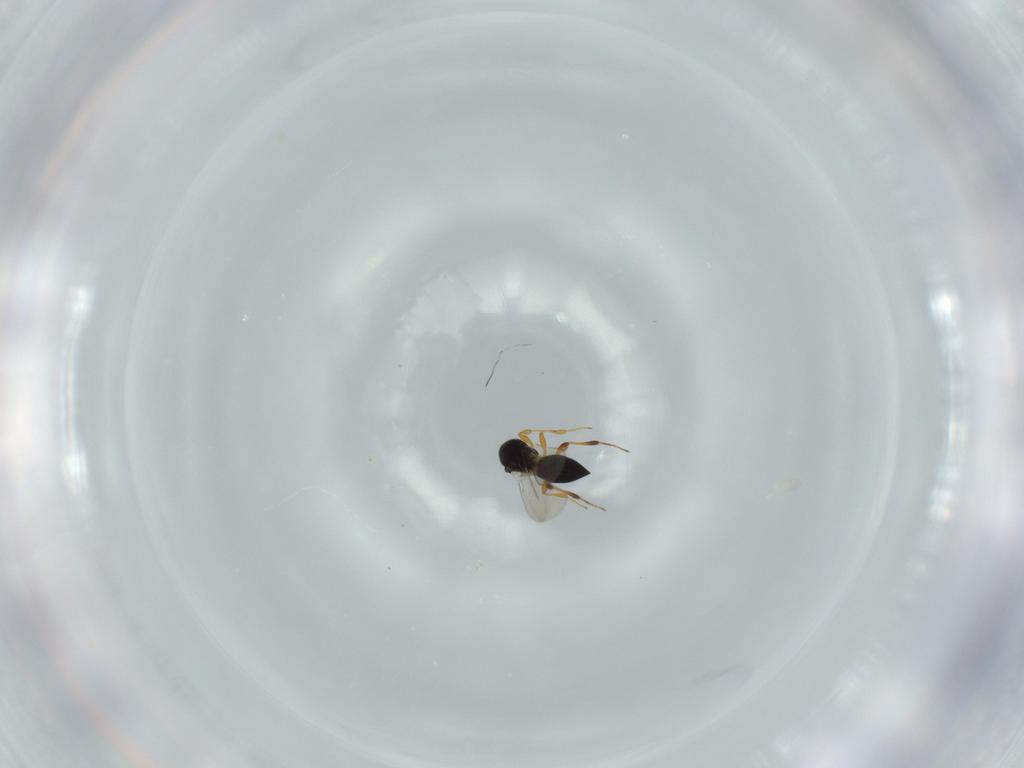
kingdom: Animalia
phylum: Arthropoda
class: Insecta
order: Hymenoptera
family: Platygastridae
